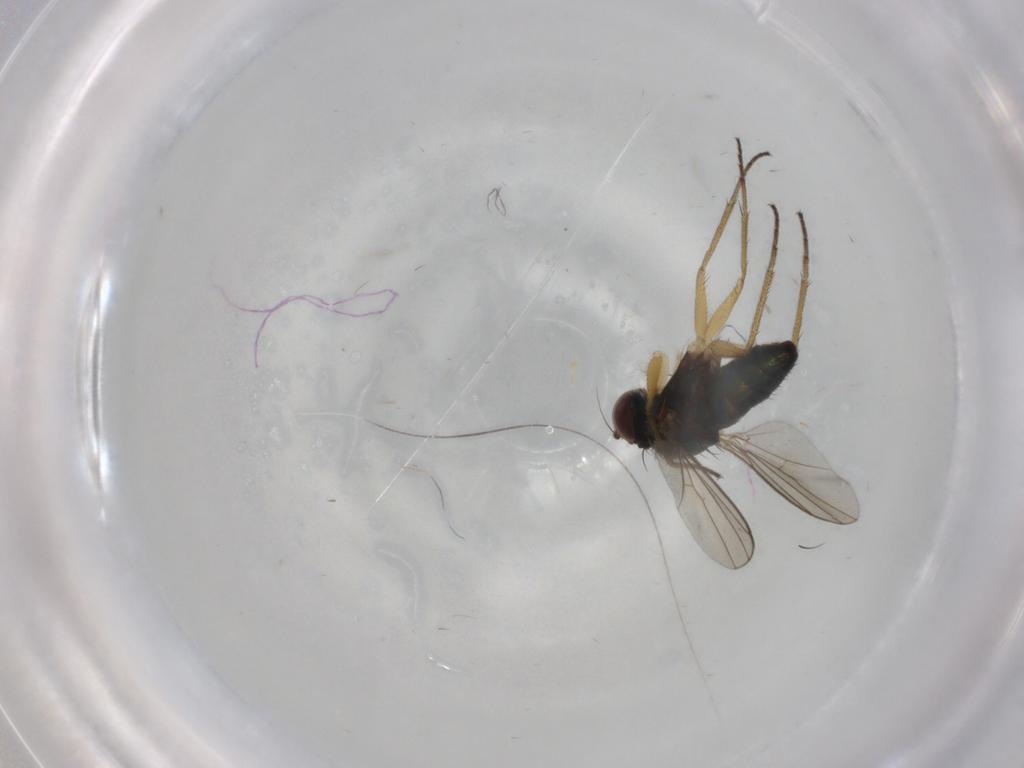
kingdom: Animalia
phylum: Arthropoda
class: Insecta
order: Diptera
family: Dolichopodidae
